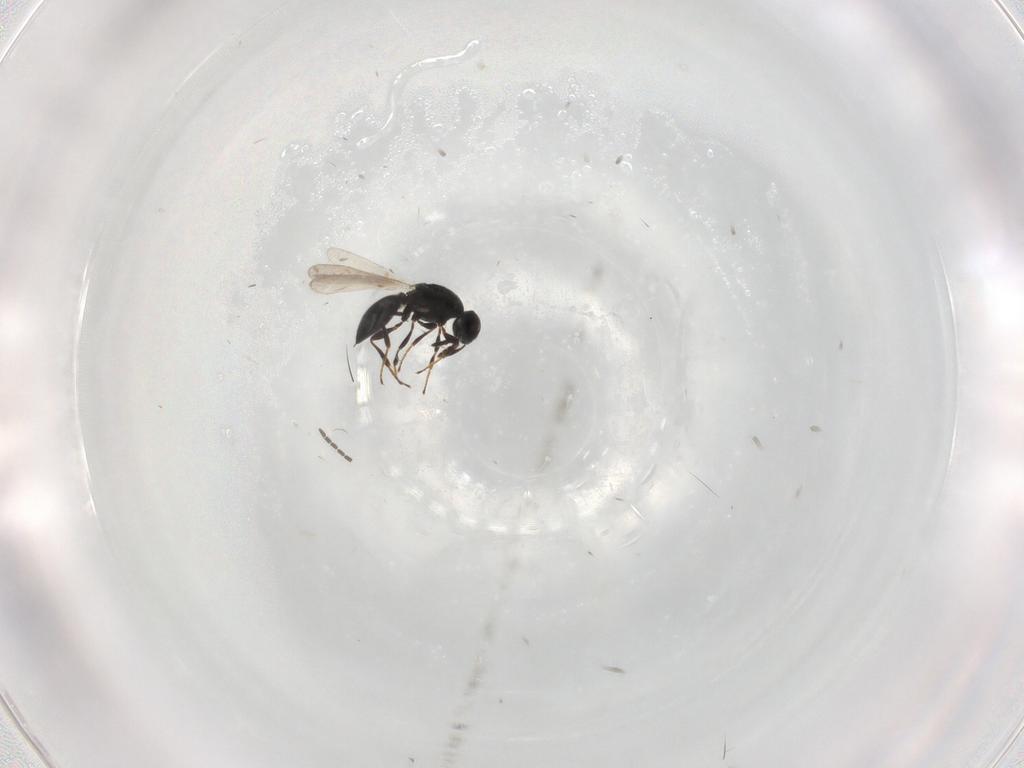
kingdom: Animalia
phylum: Arthropoda
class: Insecta
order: Hymenoptera
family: Platygastridae
